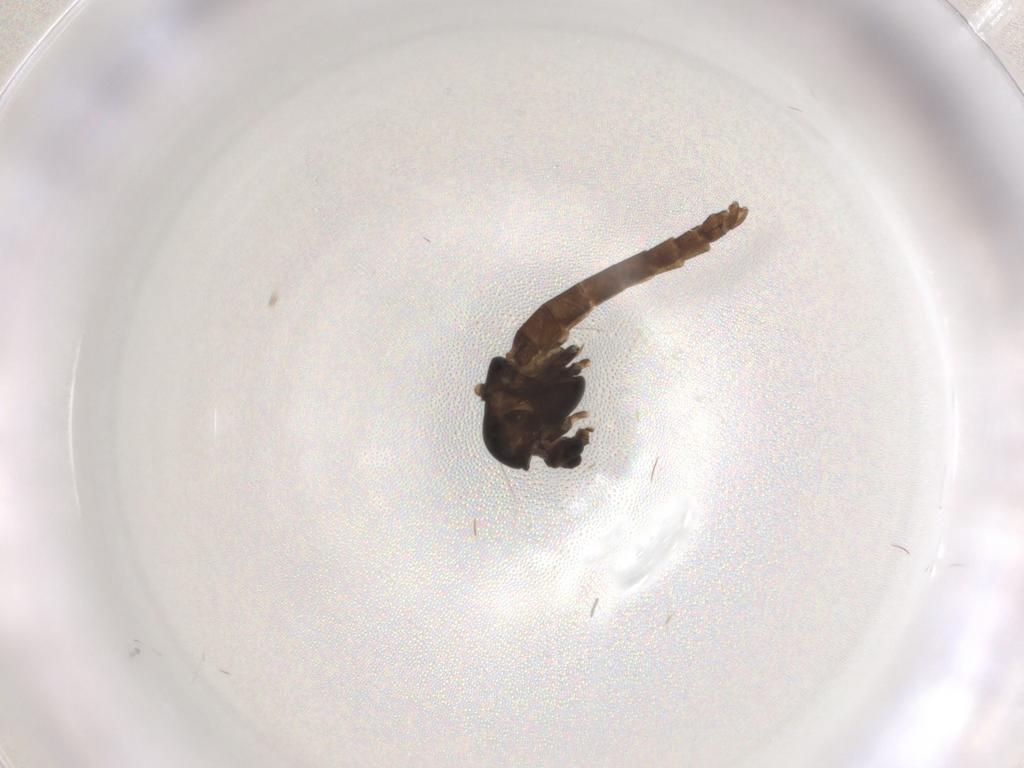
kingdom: Animalia
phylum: Arthropoda
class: Insecta
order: Diptera
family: Chironomidae
